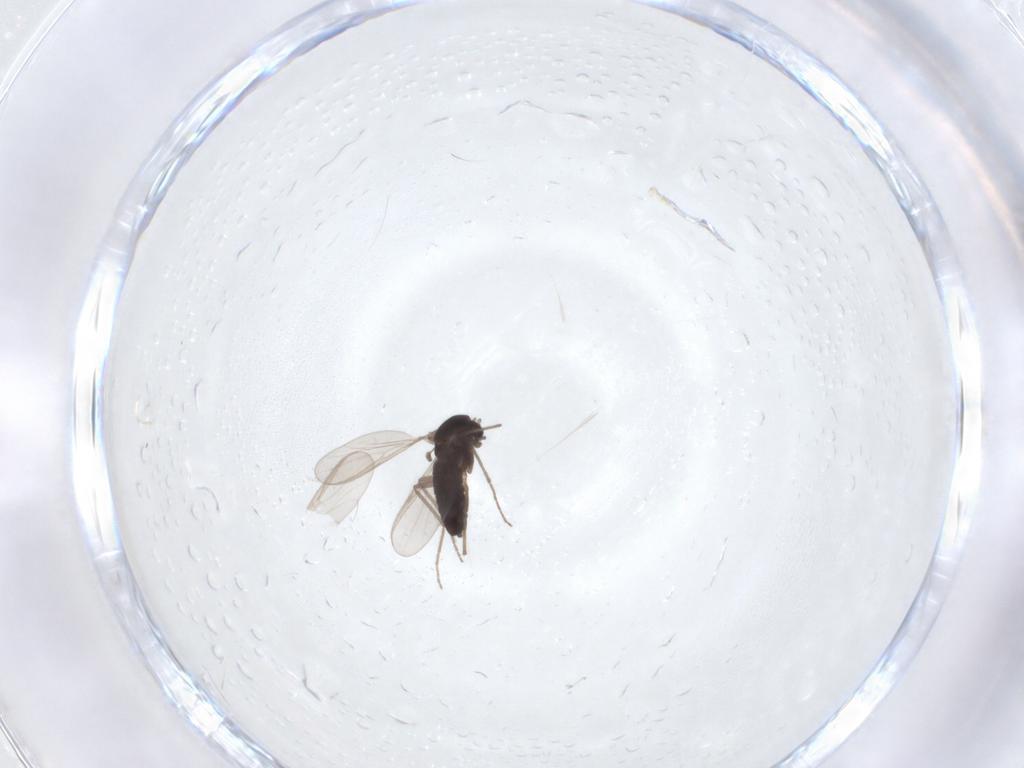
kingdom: Animalia
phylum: Arthropoda
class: Insecta
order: Diptera
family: Chironomidae
